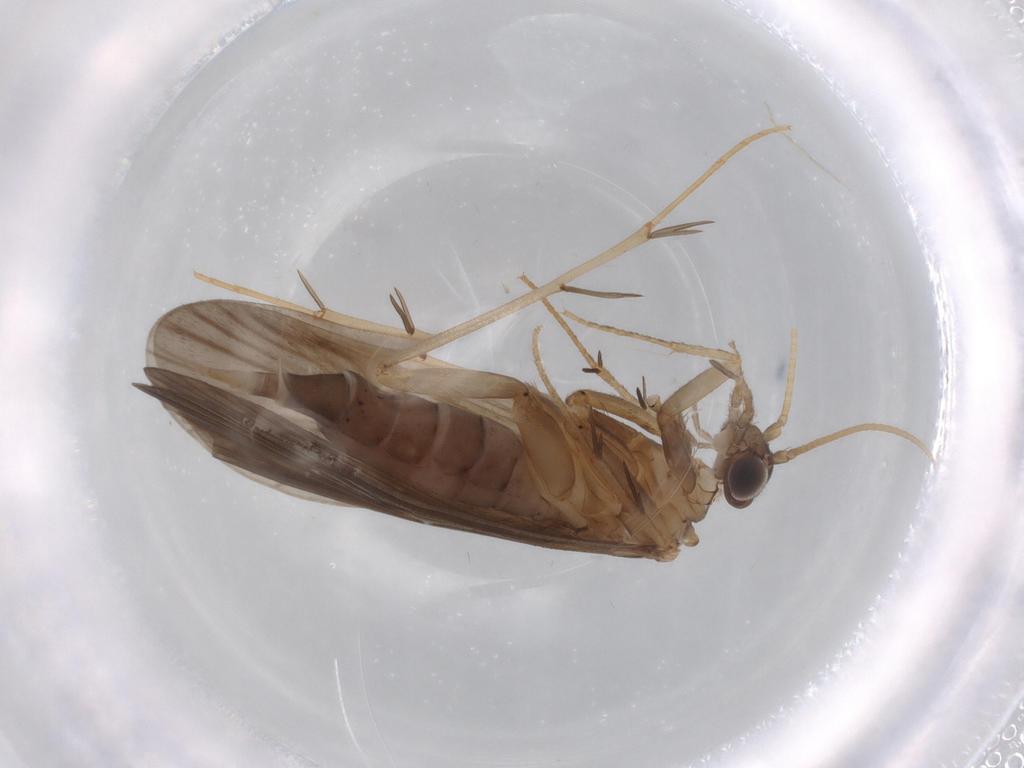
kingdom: Animalia
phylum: Arthropoda
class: Insecta
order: Trichoptera
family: Philopotamidae
